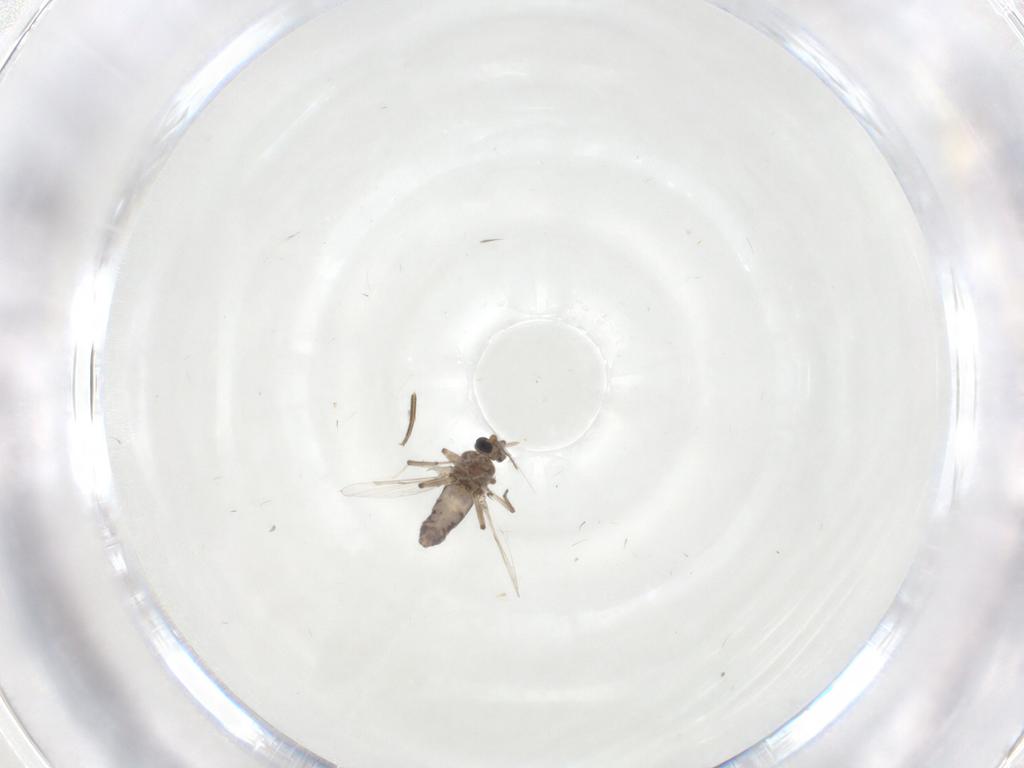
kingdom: Animalia
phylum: Arthropoda
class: Insecta
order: Diptera
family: Ceratopogonidae
